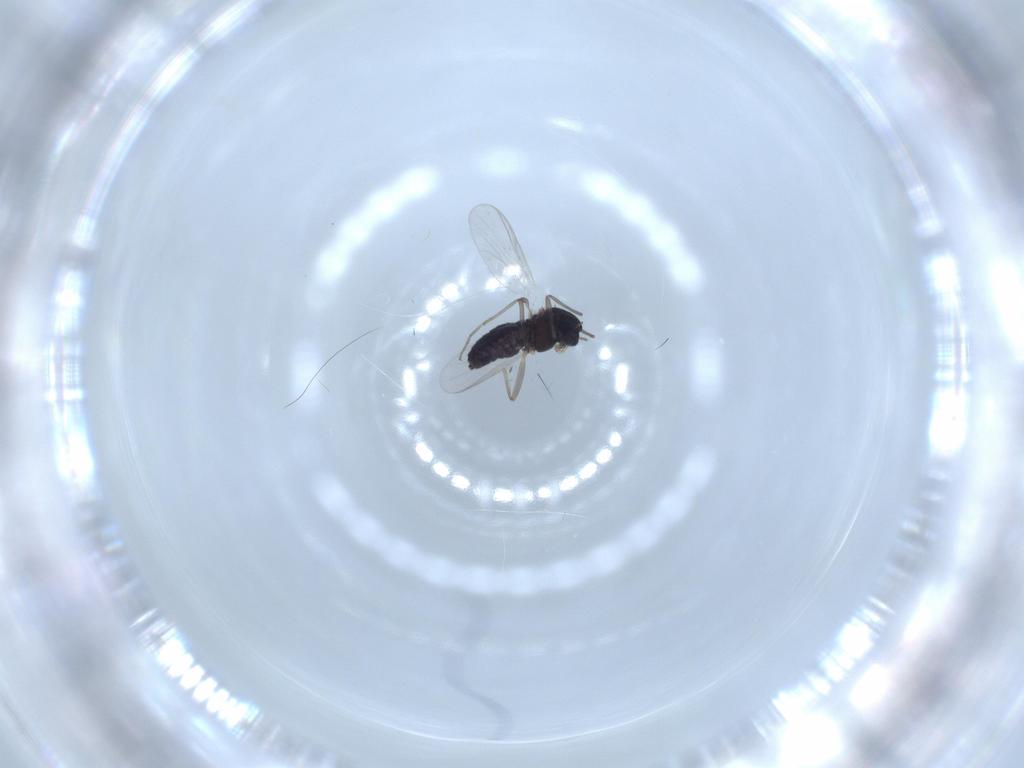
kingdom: Animalia
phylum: Arthropoda
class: Insecta
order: Diptera
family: Chironomidae
